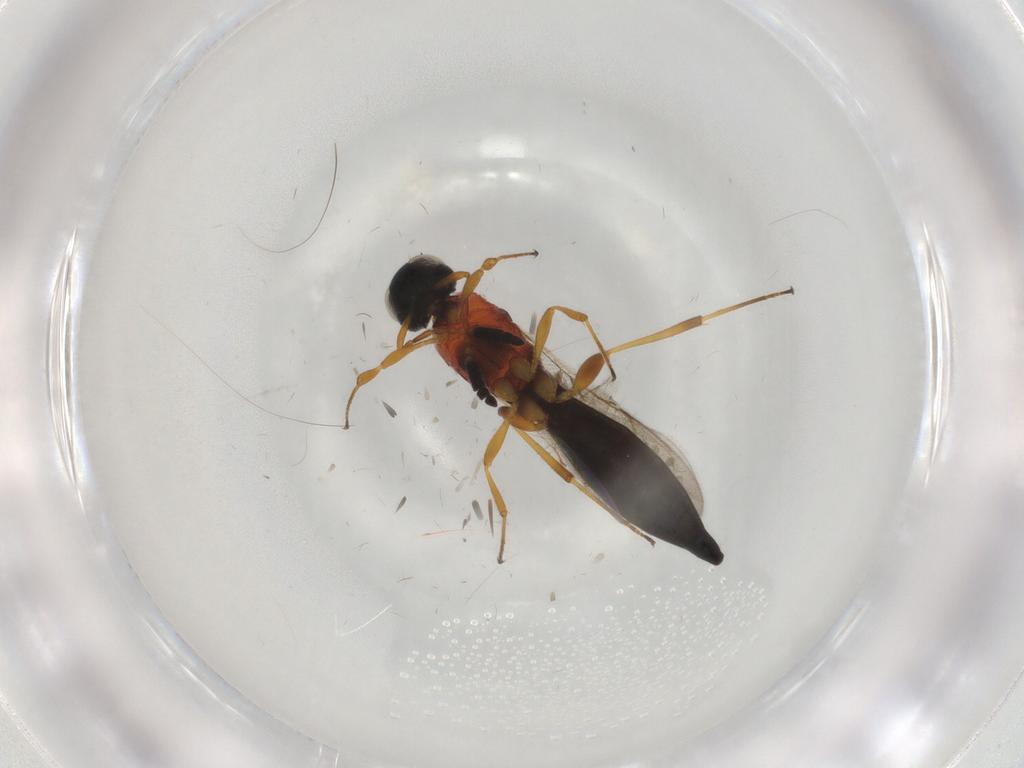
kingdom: Animalia
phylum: Arthropoda
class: Insecta
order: Hymenoptera
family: Scelionidae
